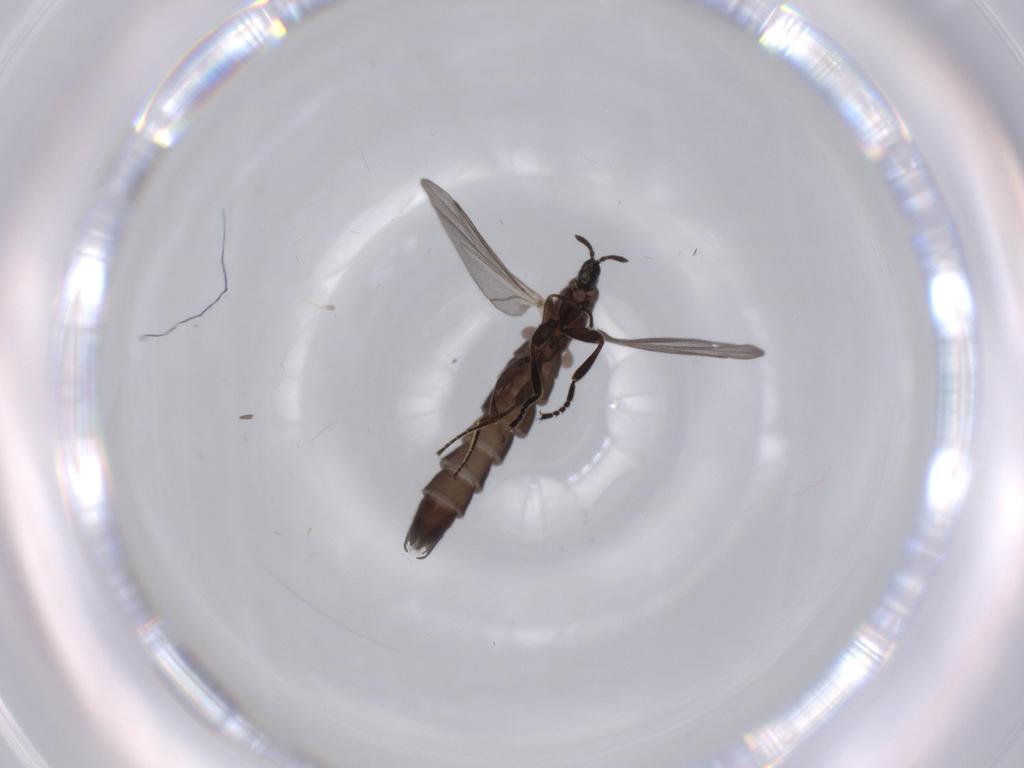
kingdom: Animalia
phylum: Arthropoda
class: Insecta
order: Diptera
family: Scatopsidae
